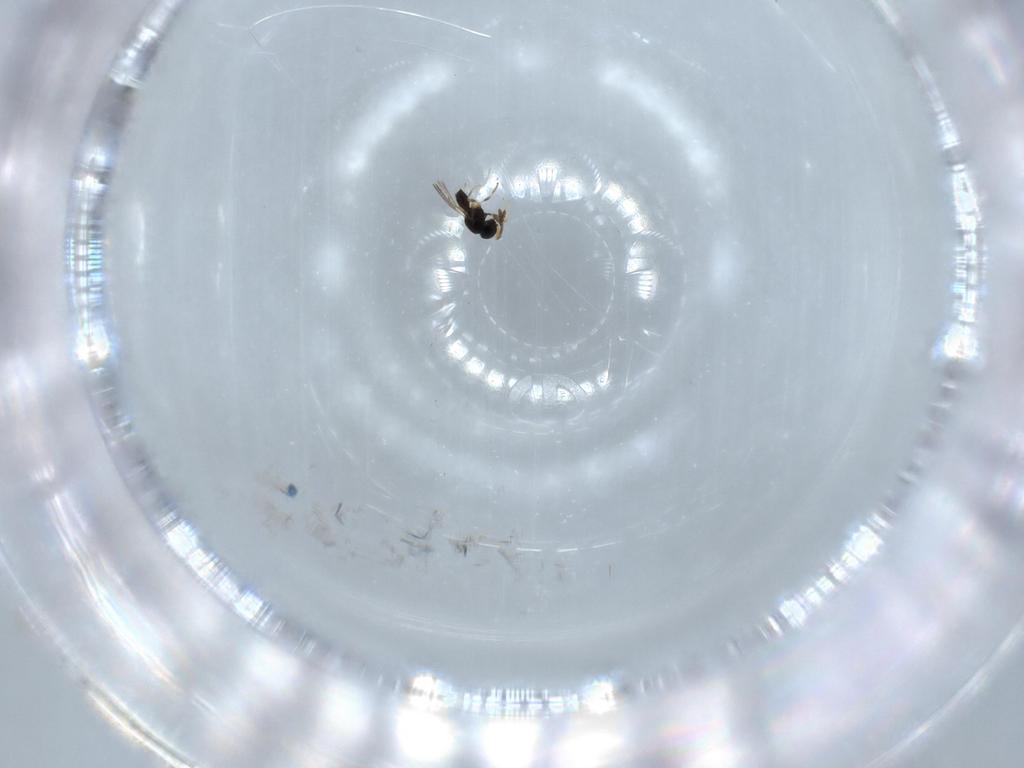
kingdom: Animalia
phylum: Arthropoda
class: Insecta
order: Hymenoptera
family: Scelionidae
